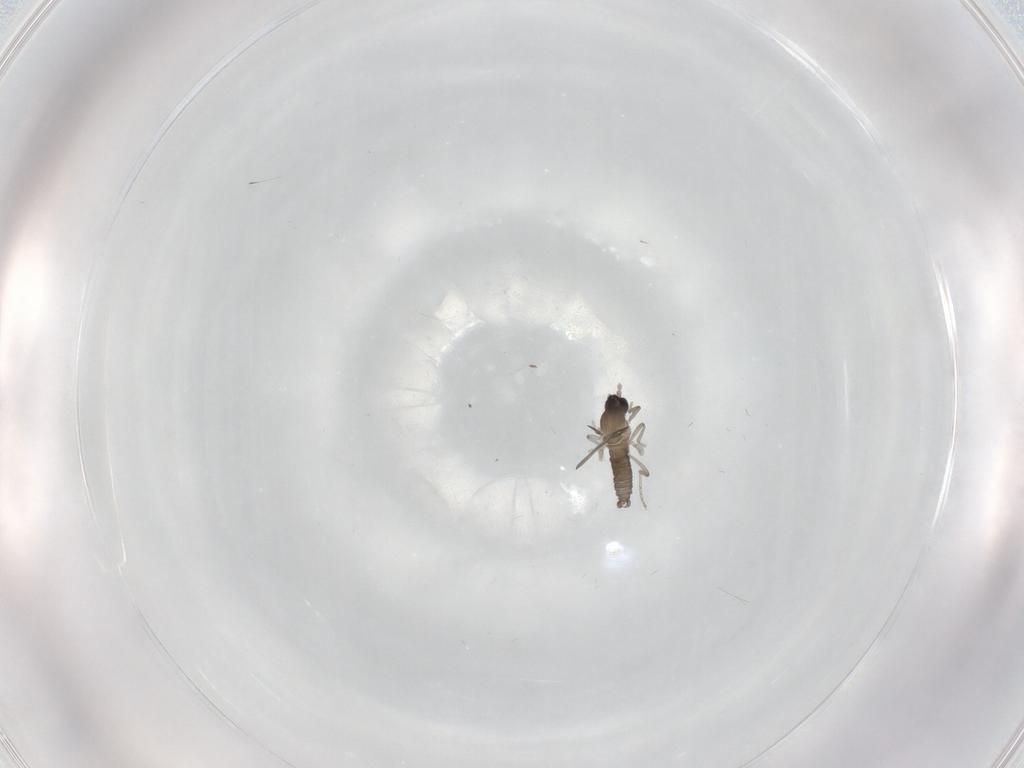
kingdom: Animalia
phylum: Arthropoda
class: Insecta
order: Diptera
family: Cecidomyiidae
